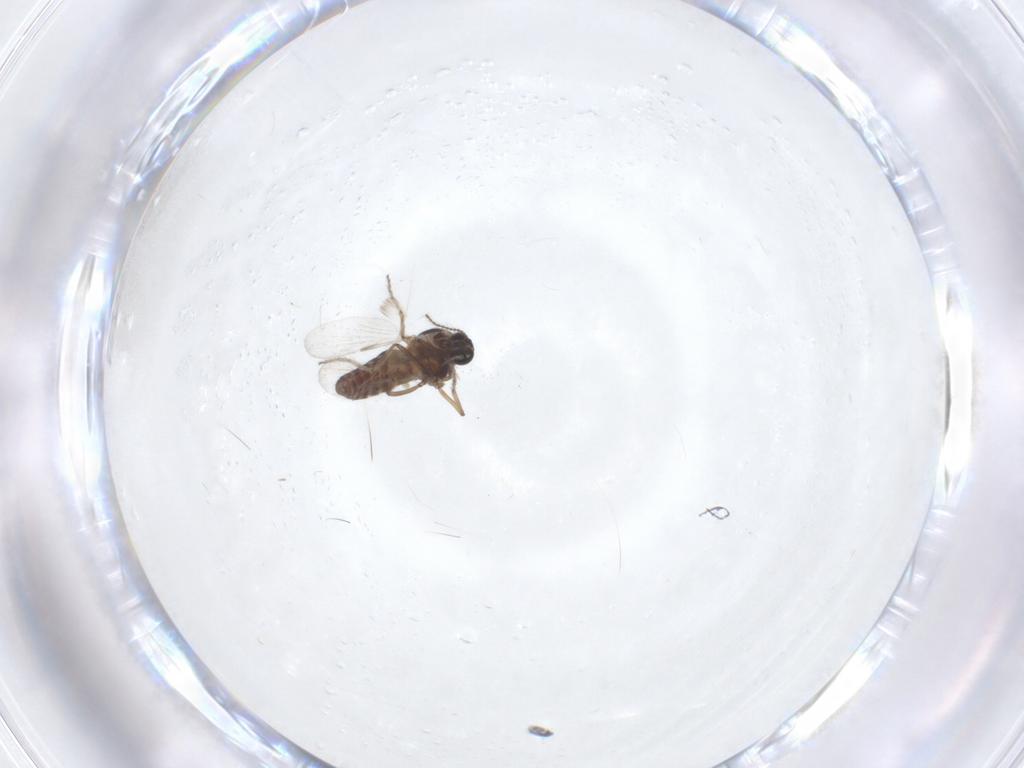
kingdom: Animalia
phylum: Arthropoda
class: Insecta
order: Diptera
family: Ceratopogonidae
